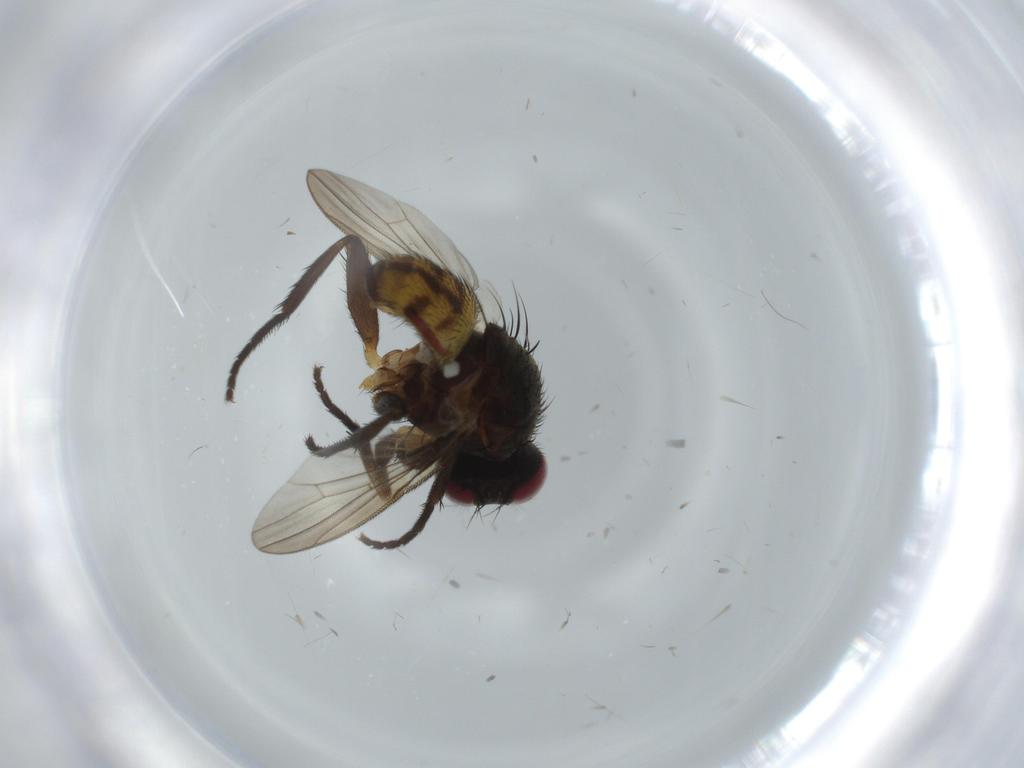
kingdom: Animalia
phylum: Arthropoda
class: Insecta
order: Diptera
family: Anthomyiidae
